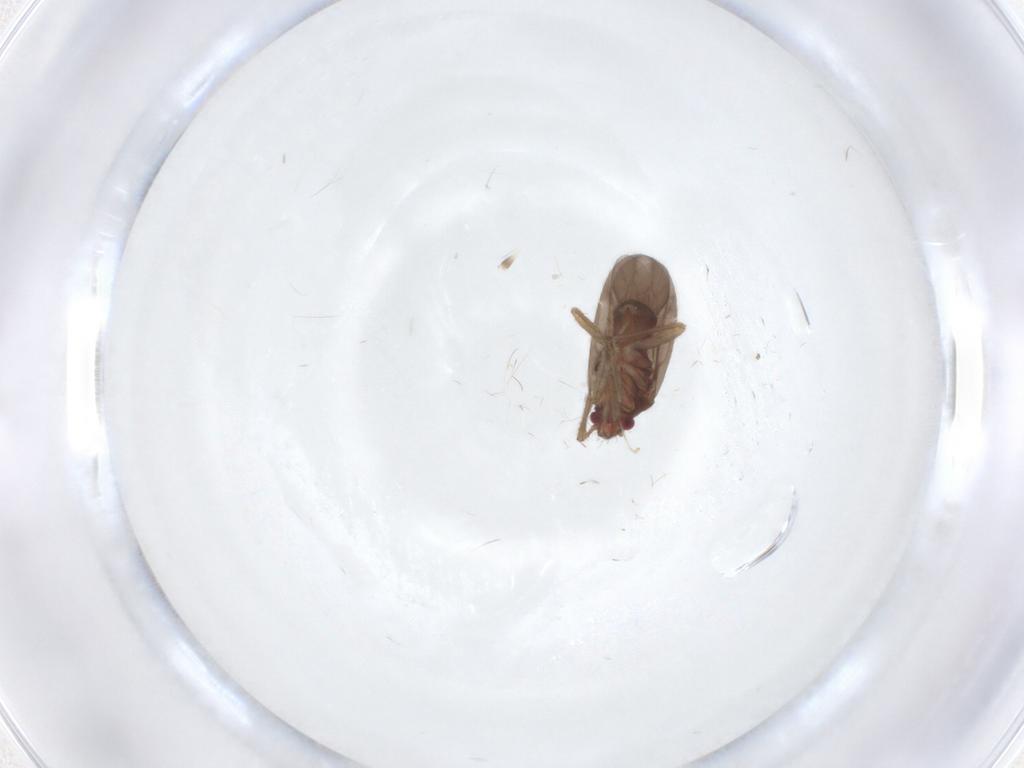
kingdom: Animalia
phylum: Arthropoda
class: Insecta
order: Hemiptera
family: Ceratocombidae
